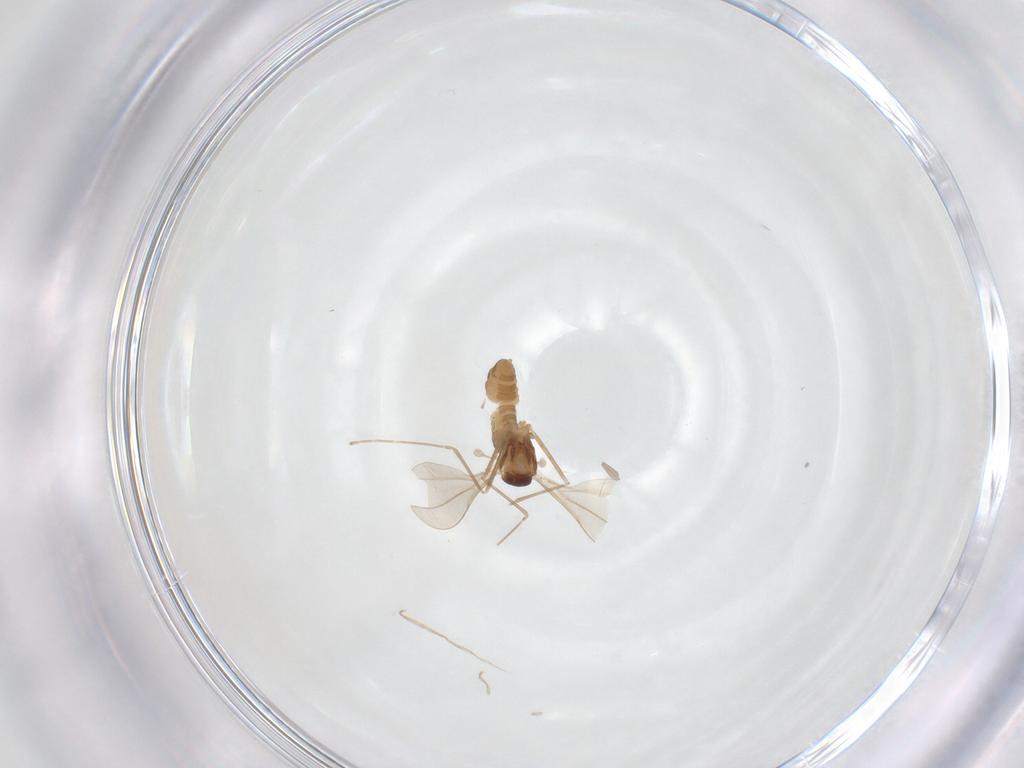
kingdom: Animalia
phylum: Arthropoda
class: Insecta
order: Diptera
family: Cecidomyiidae
